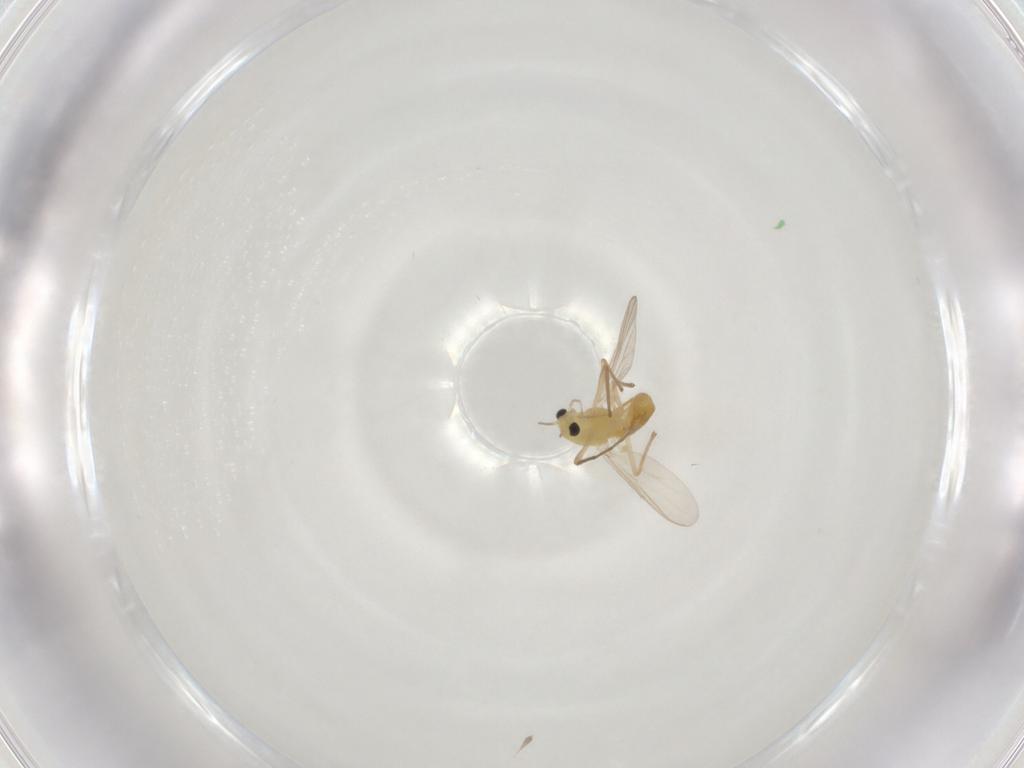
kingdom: Animalia
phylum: Arthropoda
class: Insecta
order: Diptera
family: Chironomidae
